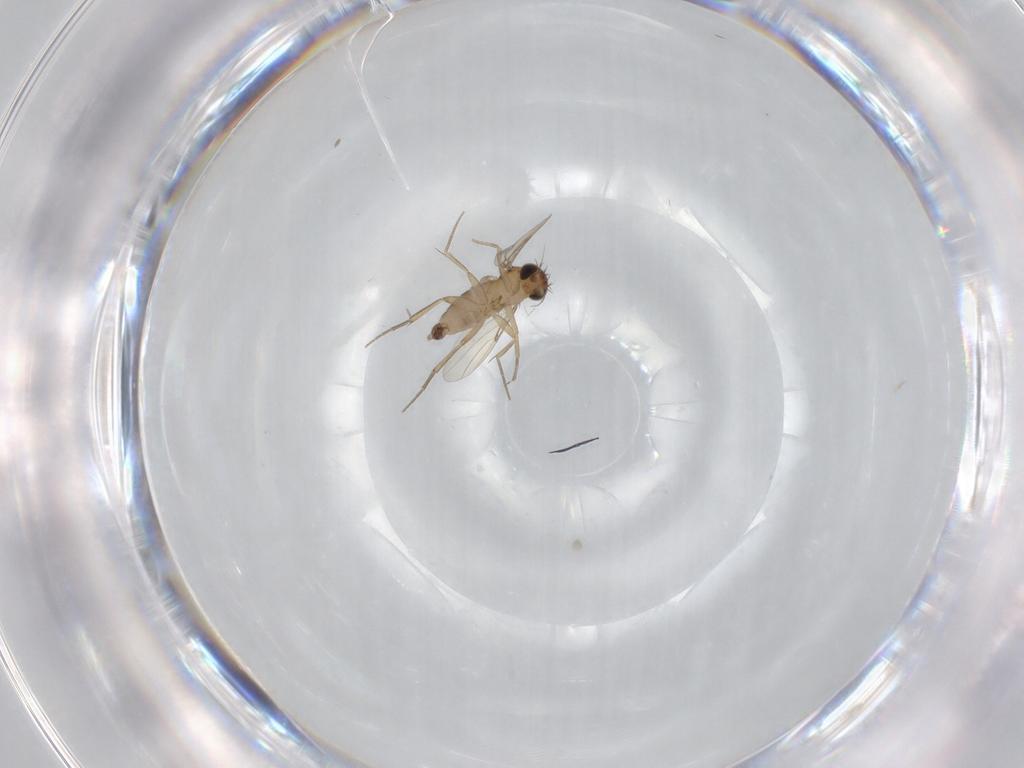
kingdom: Animalia
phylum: Arthropoda
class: Insecta
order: Diptera
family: Phoridae
